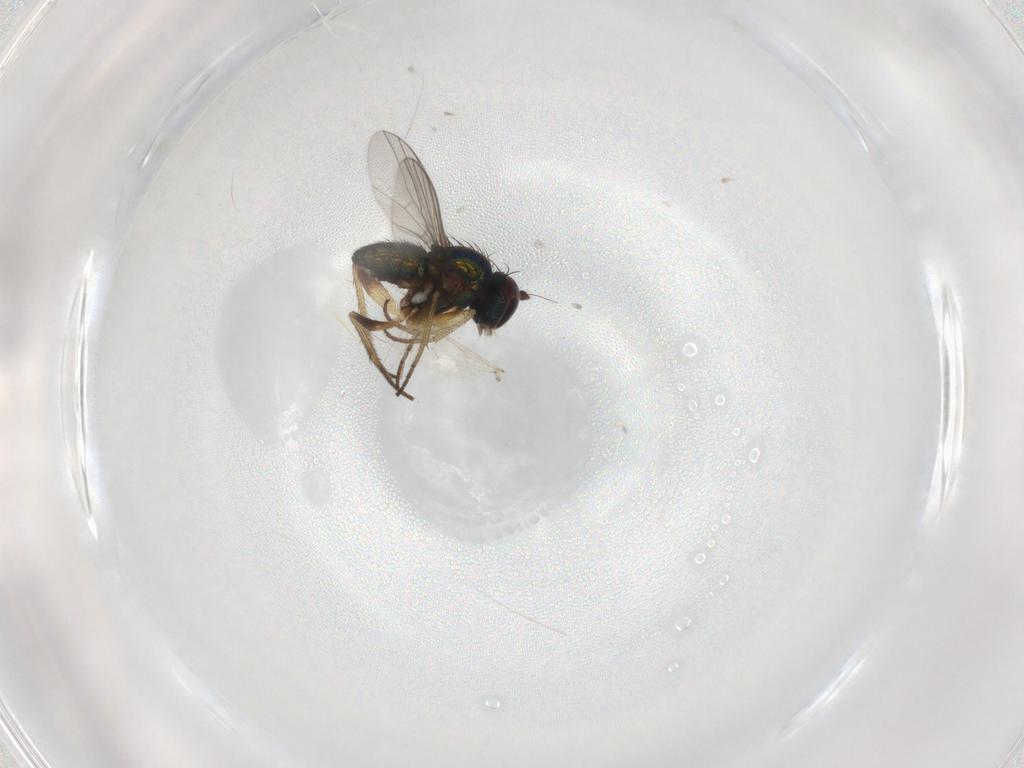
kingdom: Animalia
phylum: Arthropoda
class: Insecta
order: Diptera
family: Ceratopogonidae
